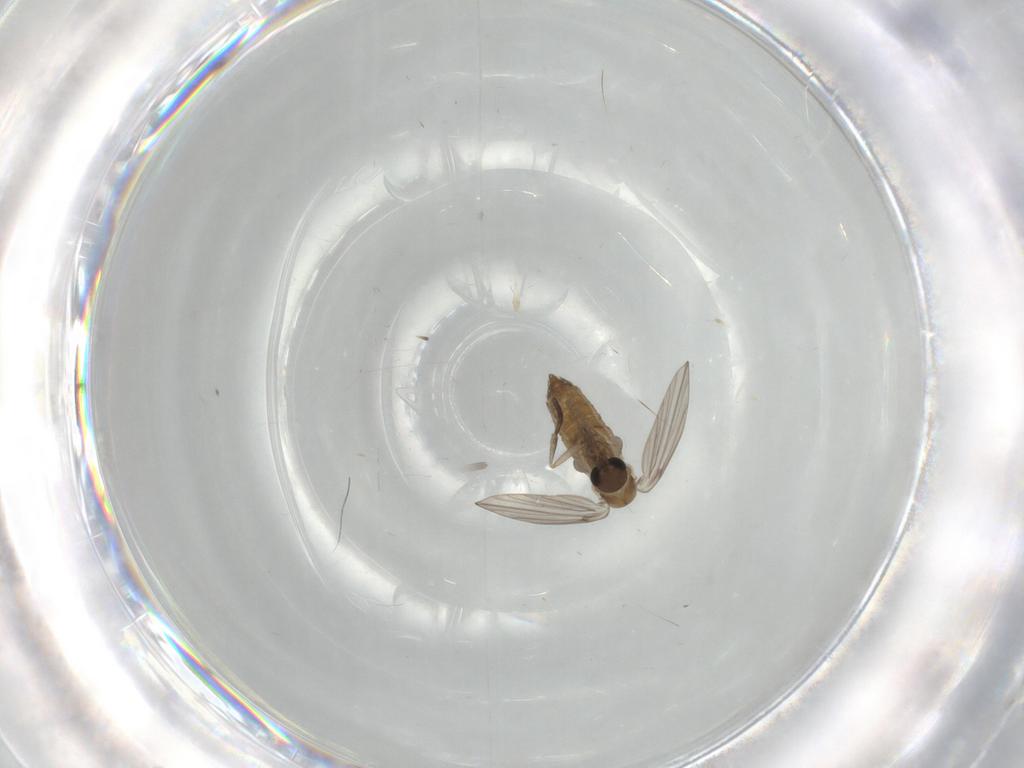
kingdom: Animalia
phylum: Arthropoda
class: Insecta
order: Diptera
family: Psychodidae
